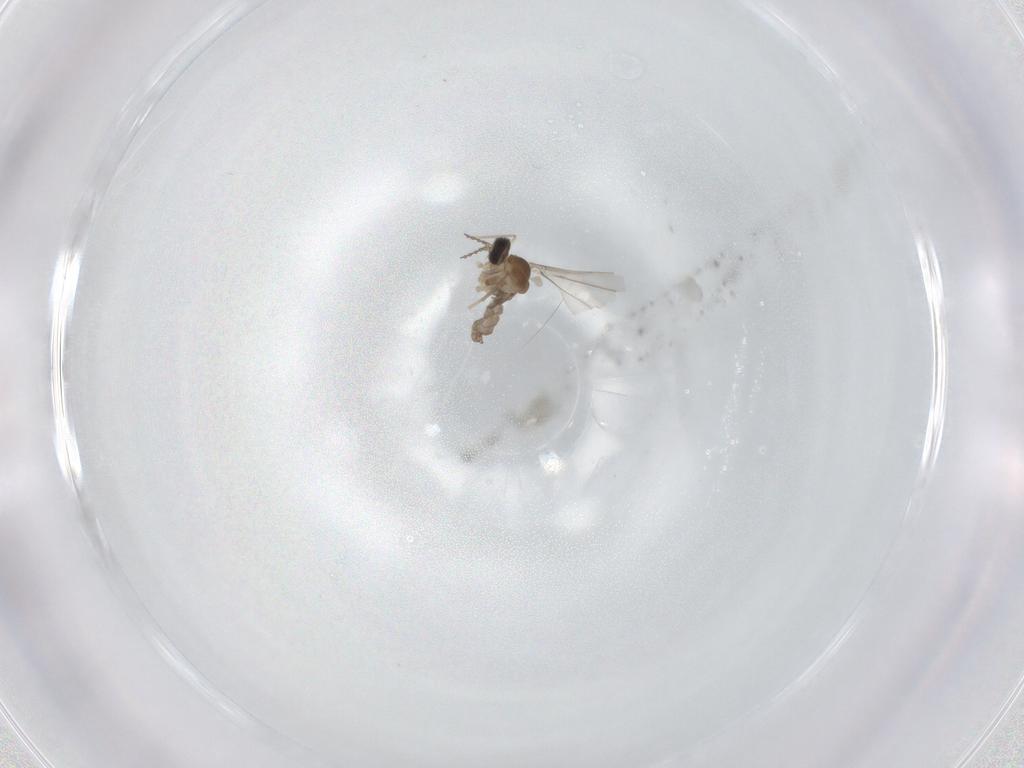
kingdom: Animalia
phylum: Arthropoda
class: Insecta
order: Diptera
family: Cecidomyiidae
